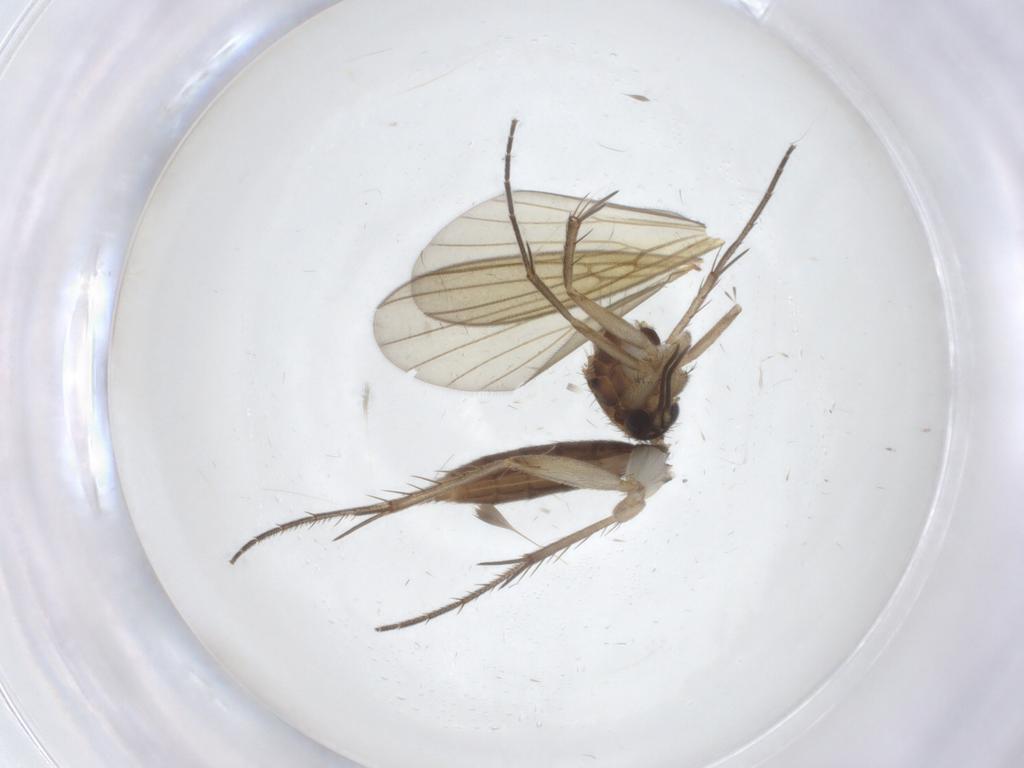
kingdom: Animalia
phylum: Arthropoda
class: Insecta
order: Diptera
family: Mycetophilidae
